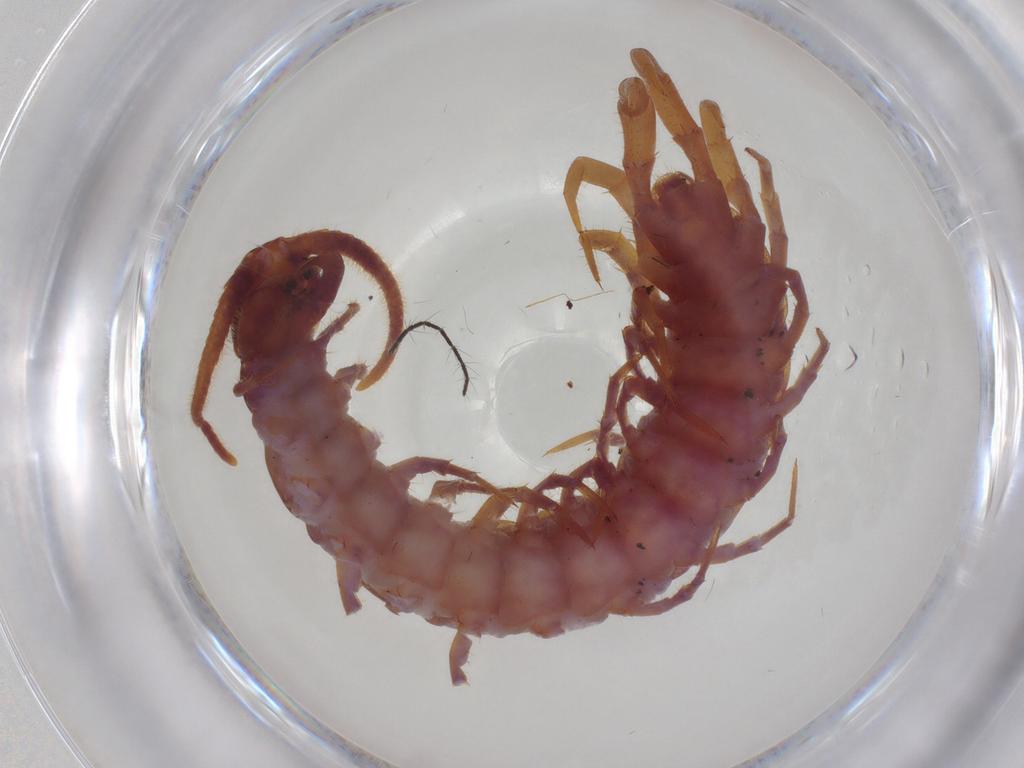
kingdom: Animalia
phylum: Arthropoda
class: Chilopoda
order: Lithobiomorpha
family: Lithobiidae
